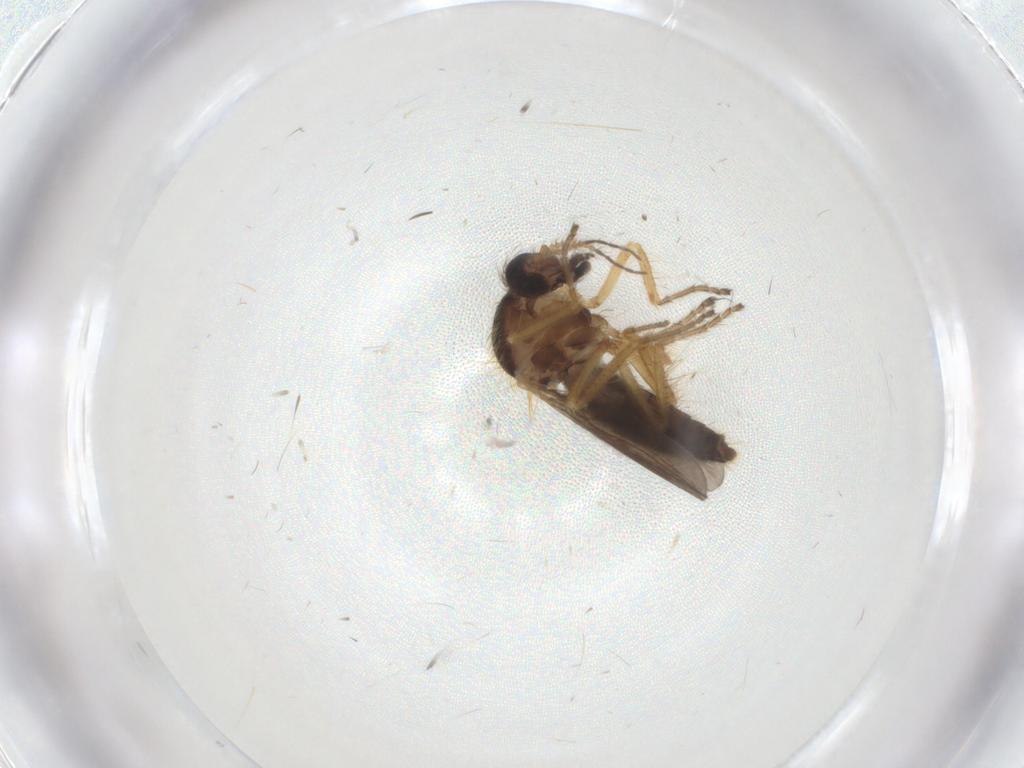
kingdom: Animalia
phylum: Arthropoda
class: Insecta
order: Diptera
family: Ceratopogonidae
